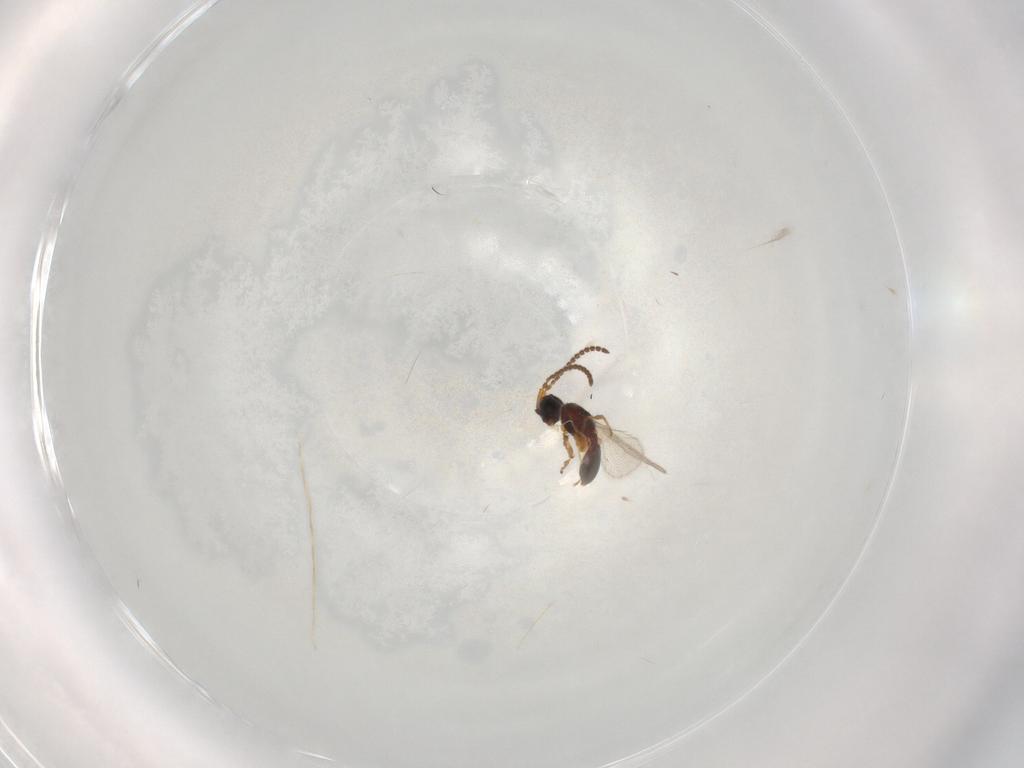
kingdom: Animalia
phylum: Arthropoda
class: Insecta
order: Hymenoptera
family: Diapriidae
